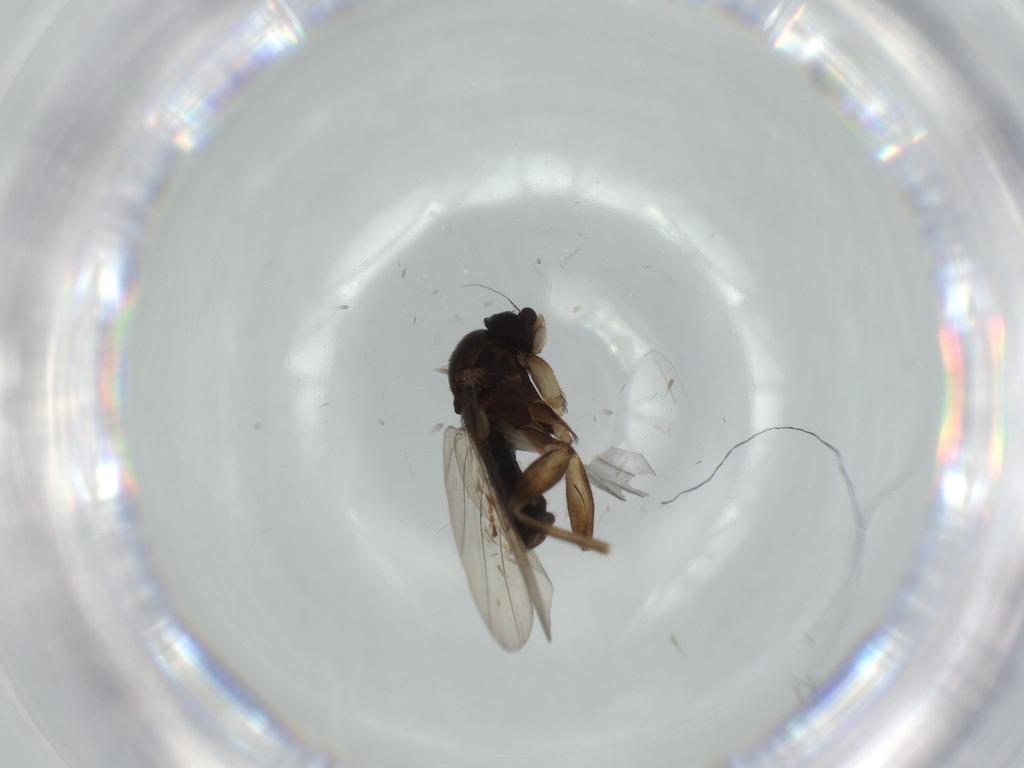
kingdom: Animalia
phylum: Arthropoda
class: Insecta
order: Diptera
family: Phoridae
